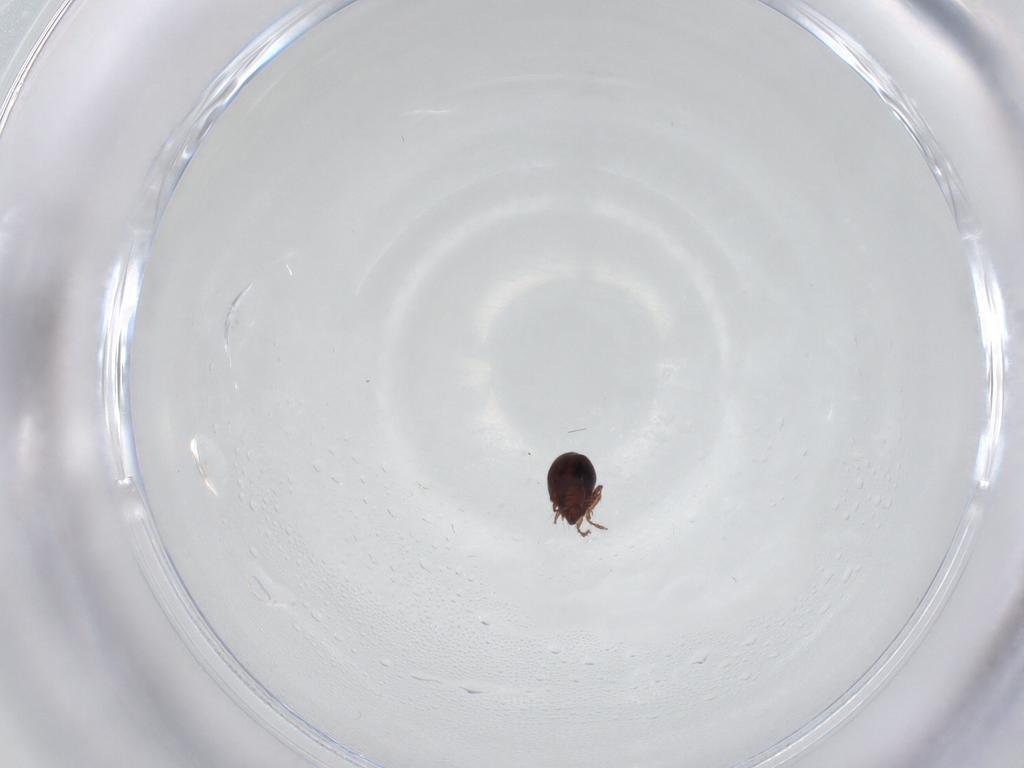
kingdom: Animalia
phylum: Arthropoda
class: Arachnida
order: Sarcoptiformes
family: Ceratozetidae
